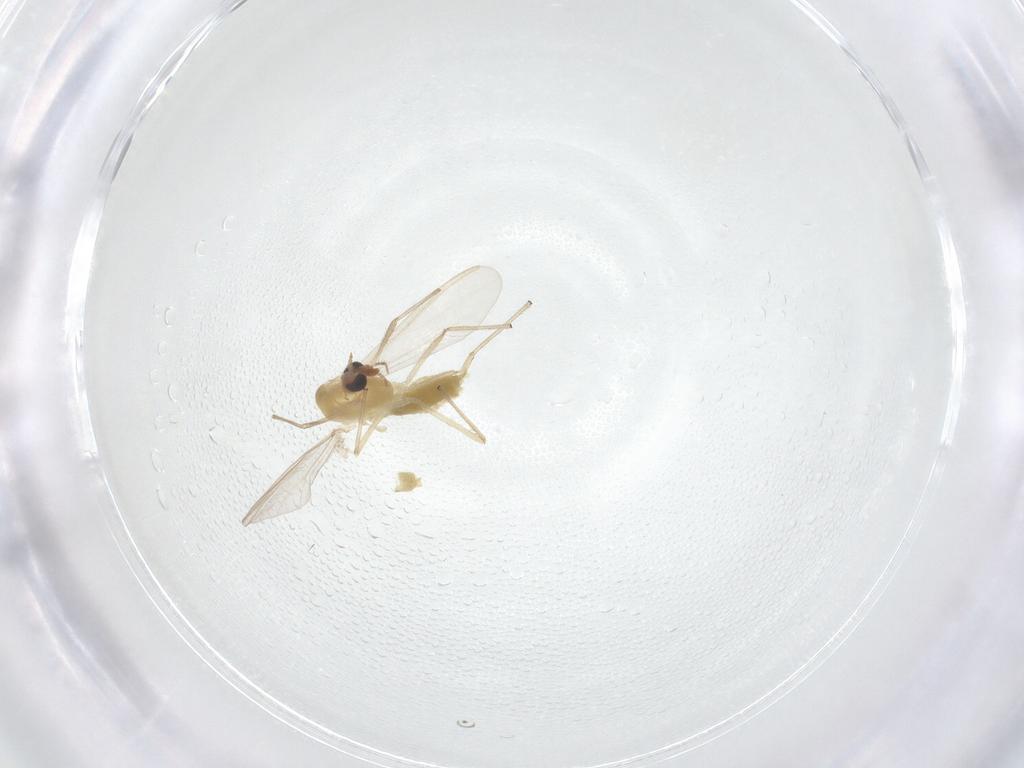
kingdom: Animalia
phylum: Arthropoda
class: Insecta
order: Diptera
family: Chironomidae
